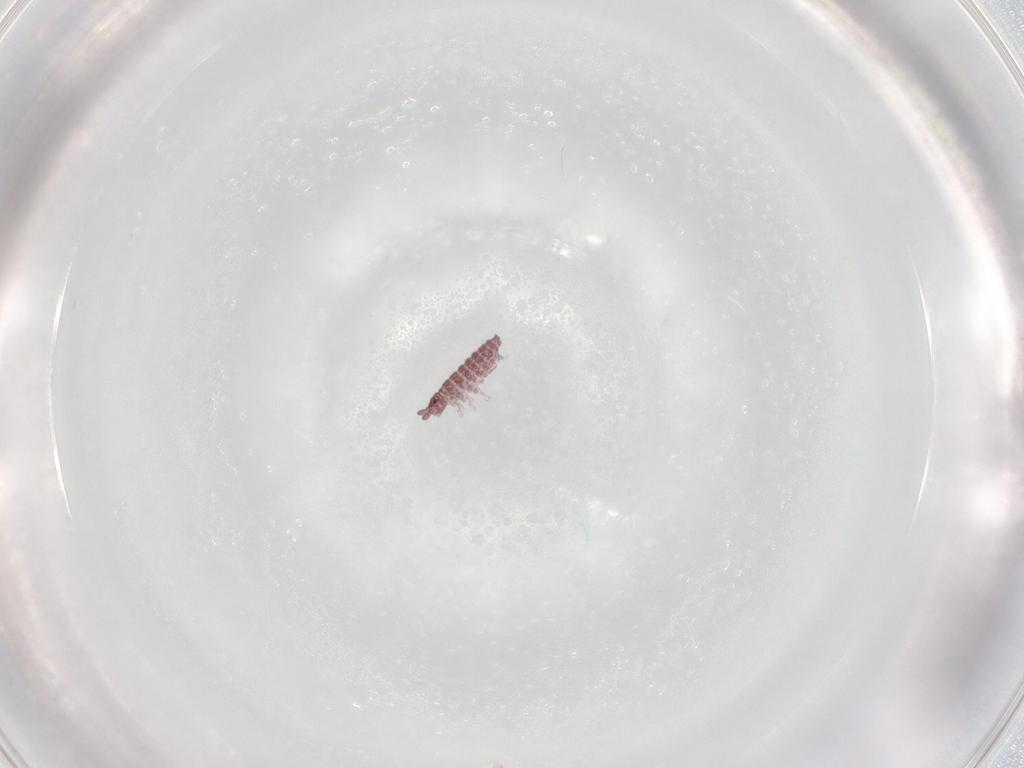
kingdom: Animalia
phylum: Arthropoda
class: Collembola
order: Poduromorpha
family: Hypogastruridae
